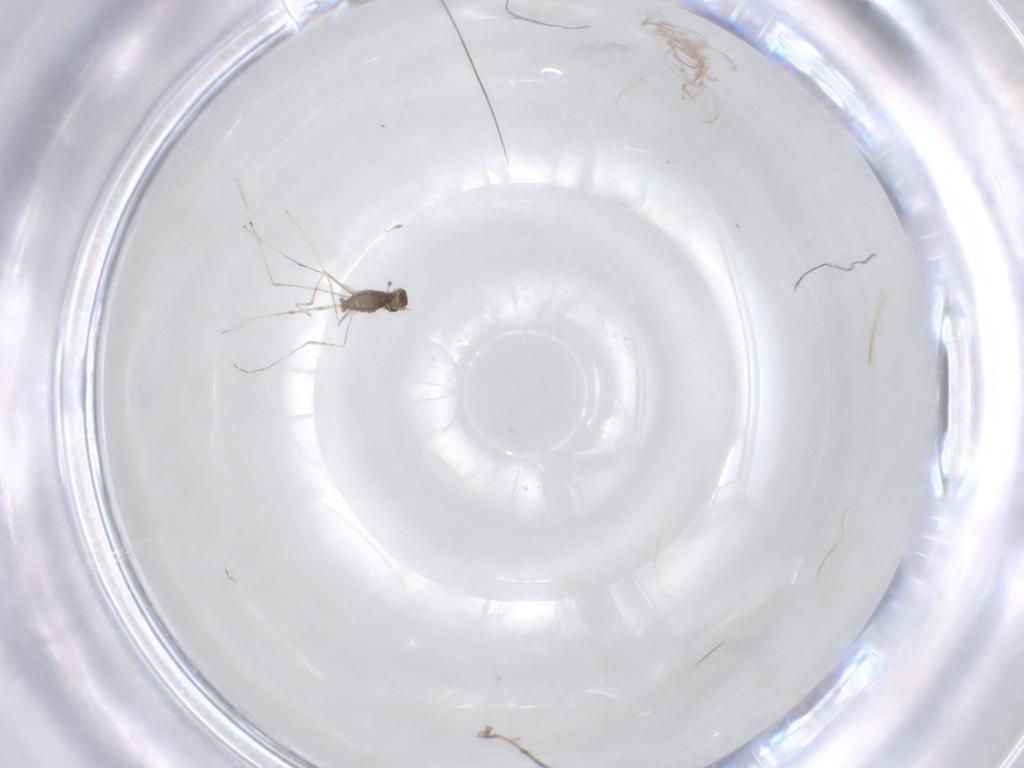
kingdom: Animalia
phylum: Arthropoda
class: Insecta
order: Diptera
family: Cecidomyiidae
